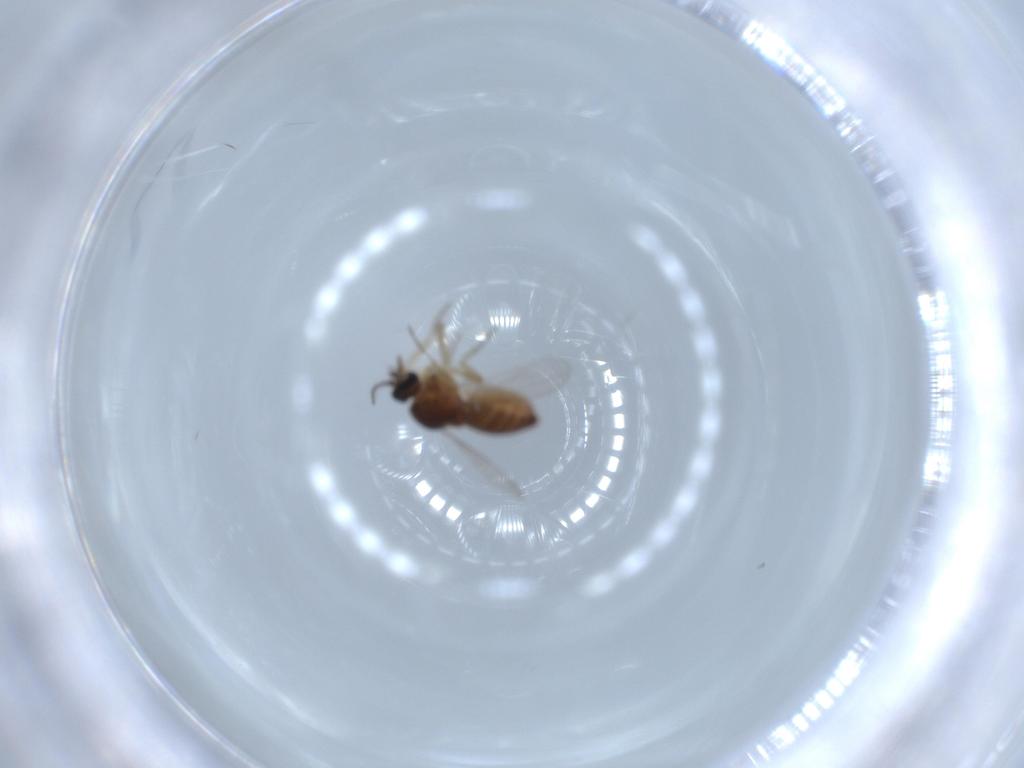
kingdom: Animalia
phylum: Arthropoda
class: Insecta
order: Diptera
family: Ceratopogonidae
